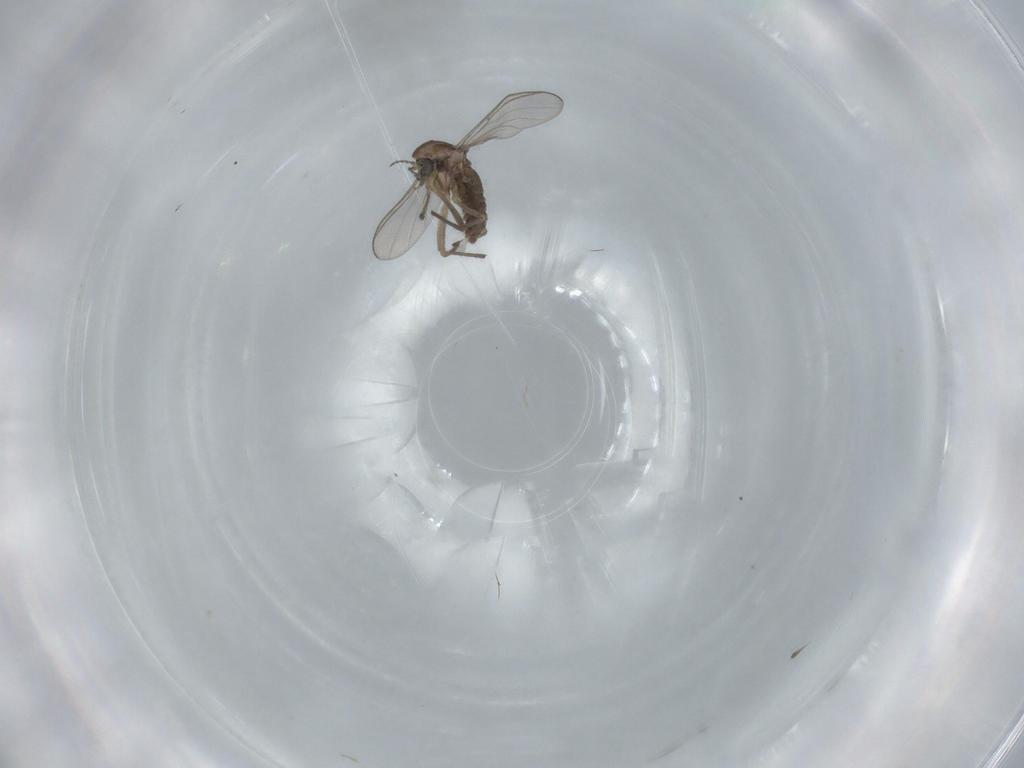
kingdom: Animalia
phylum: Arthropoda
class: Insecta
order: Diptera
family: Chironomidae
